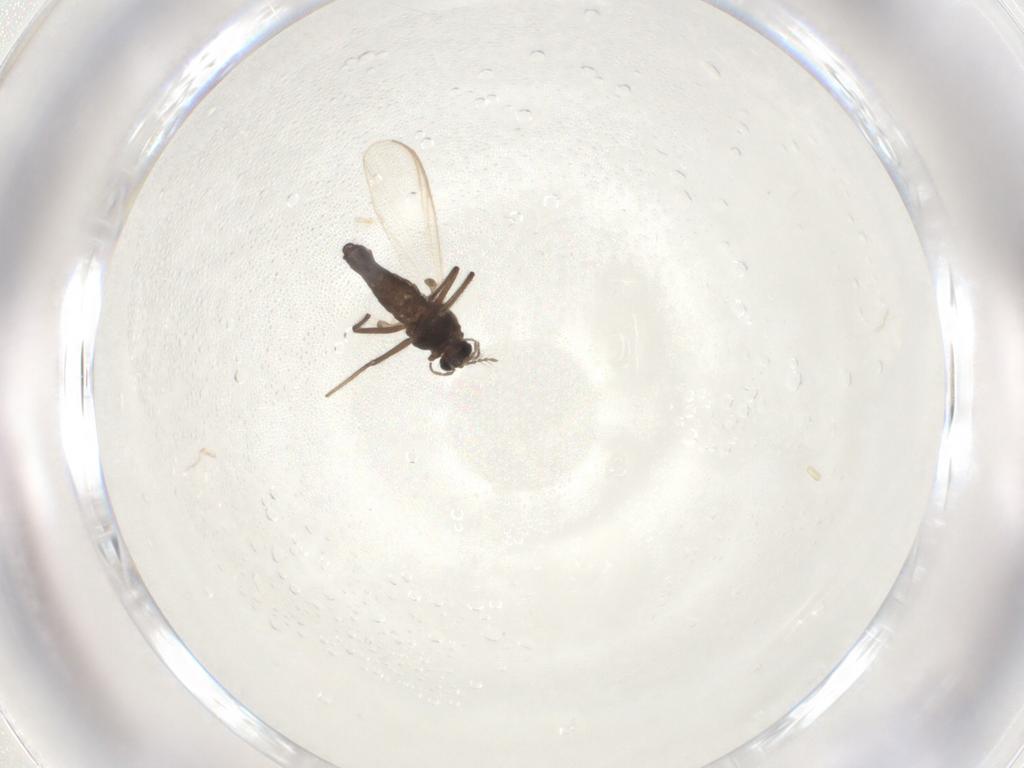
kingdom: Animalia
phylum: Arthropoda
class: Insecta
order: Diptera
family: Chironomidae
